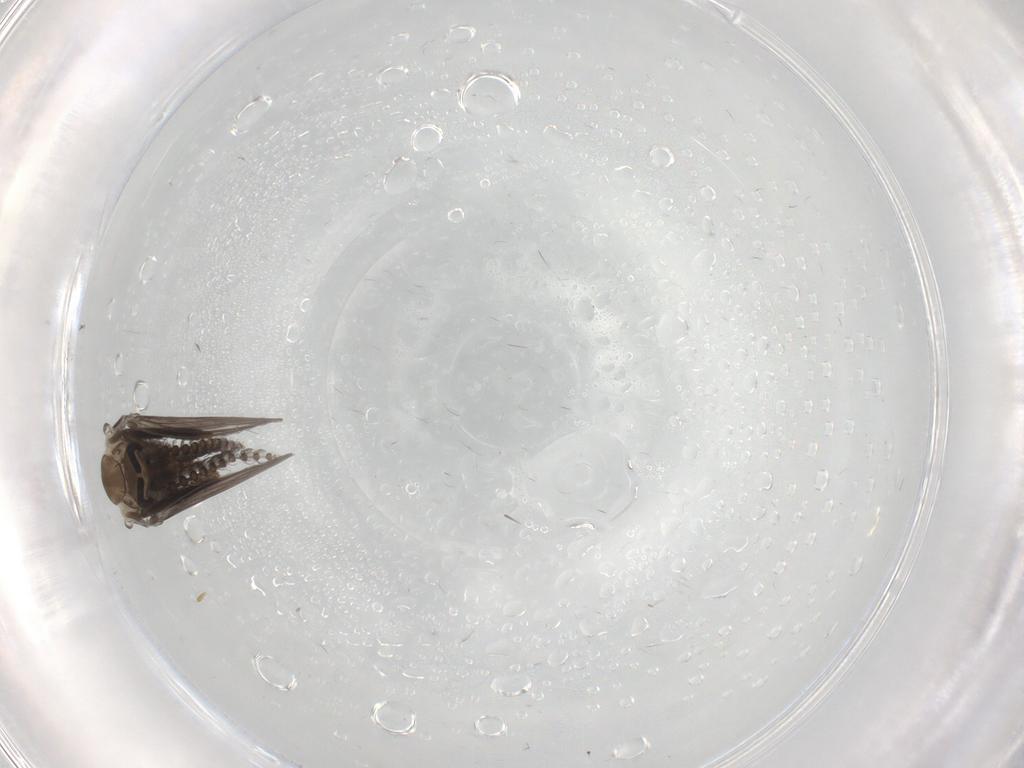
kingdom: Animalia
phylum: Arthropoda
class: Insecta
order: Diptera
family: Psychodidae
